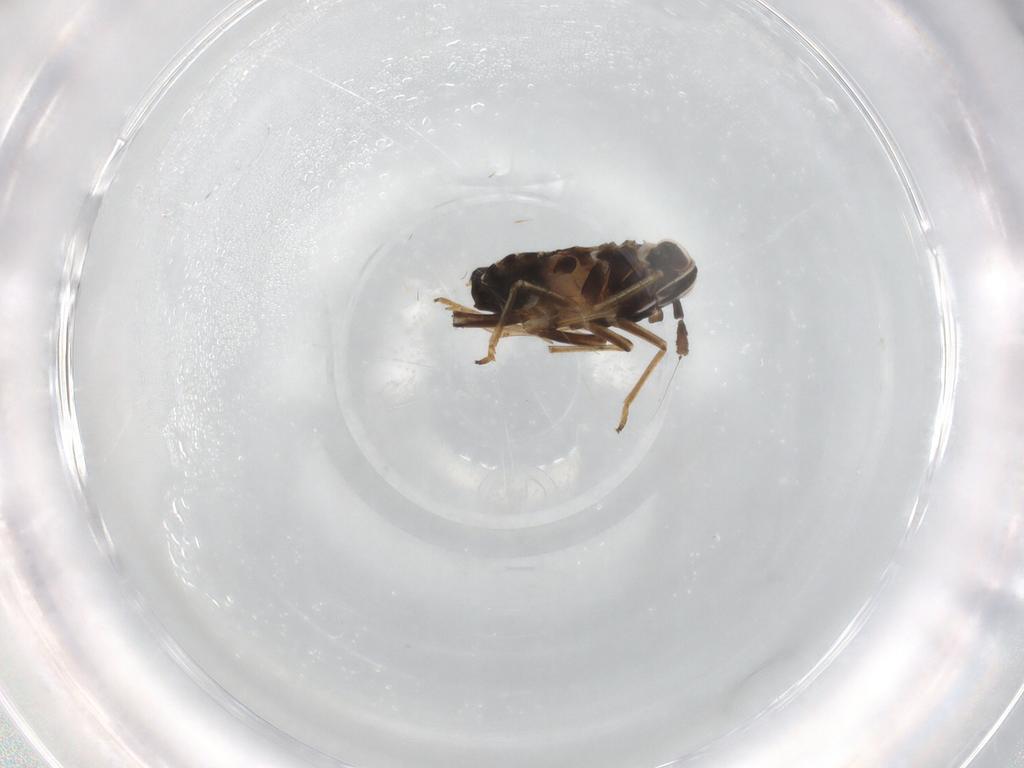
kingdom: Animalia
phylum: Arthropoda
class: Insecta
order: Hemiptera
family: Delphacidae
